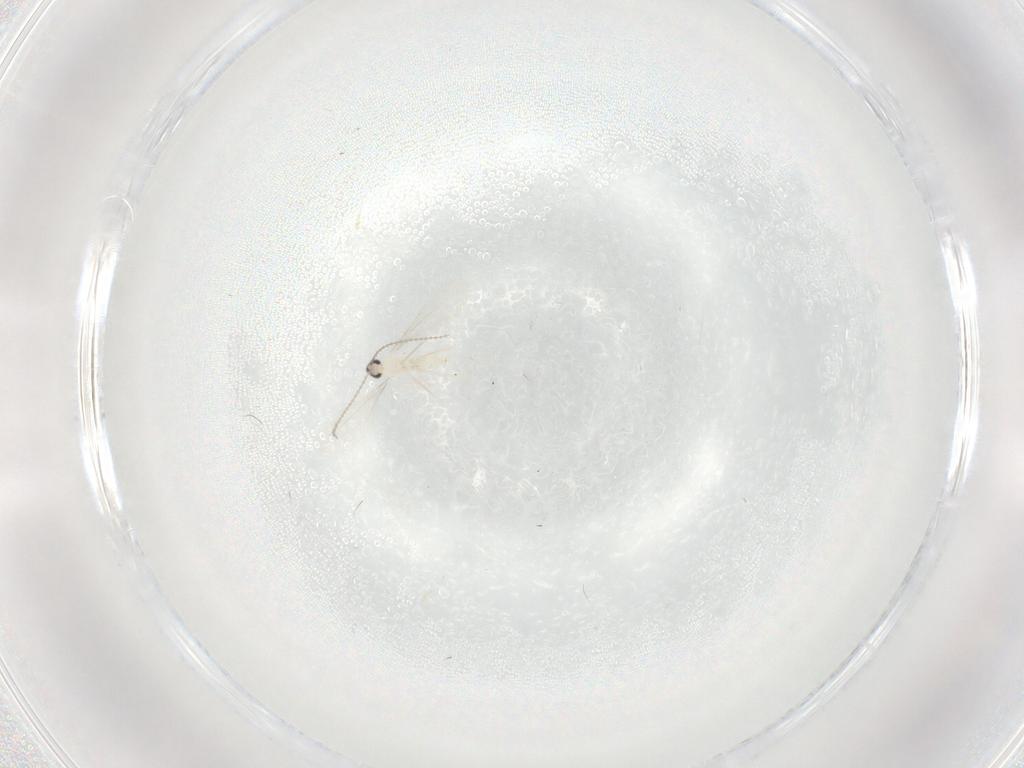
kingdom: Animalia
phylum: Arthropoda
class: Insecta
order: Diptera
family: Cecidomyiidae
